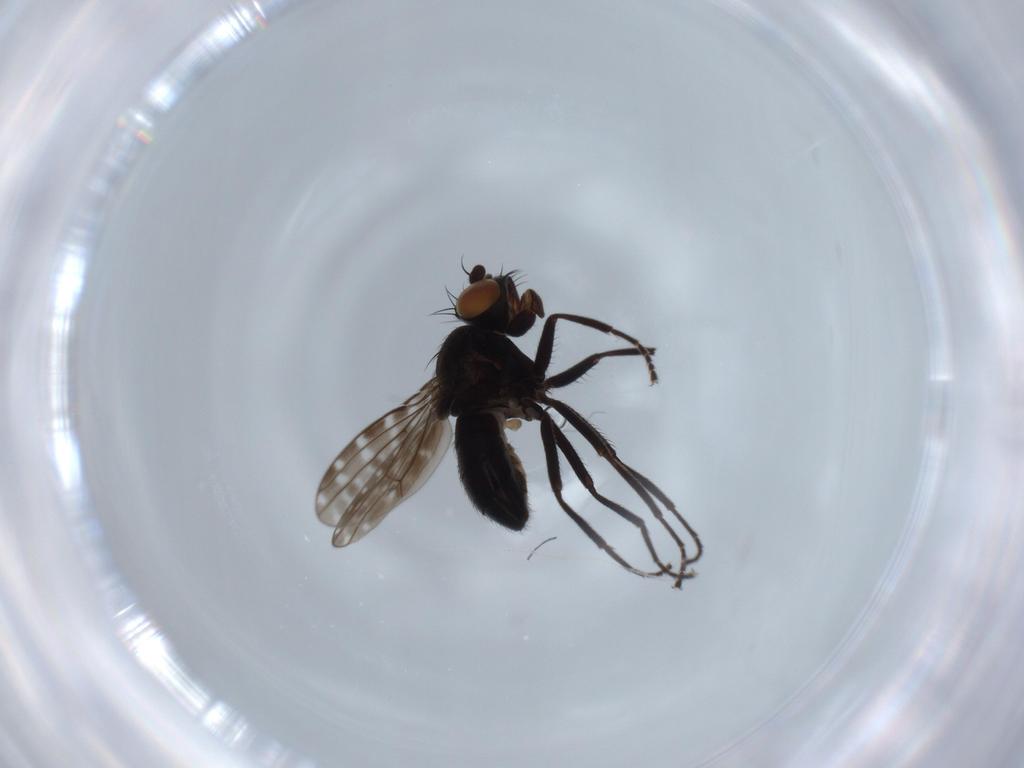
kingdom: Animalia
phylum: Arthropoda
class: Insecta
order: Diptera
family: Ephydridae
